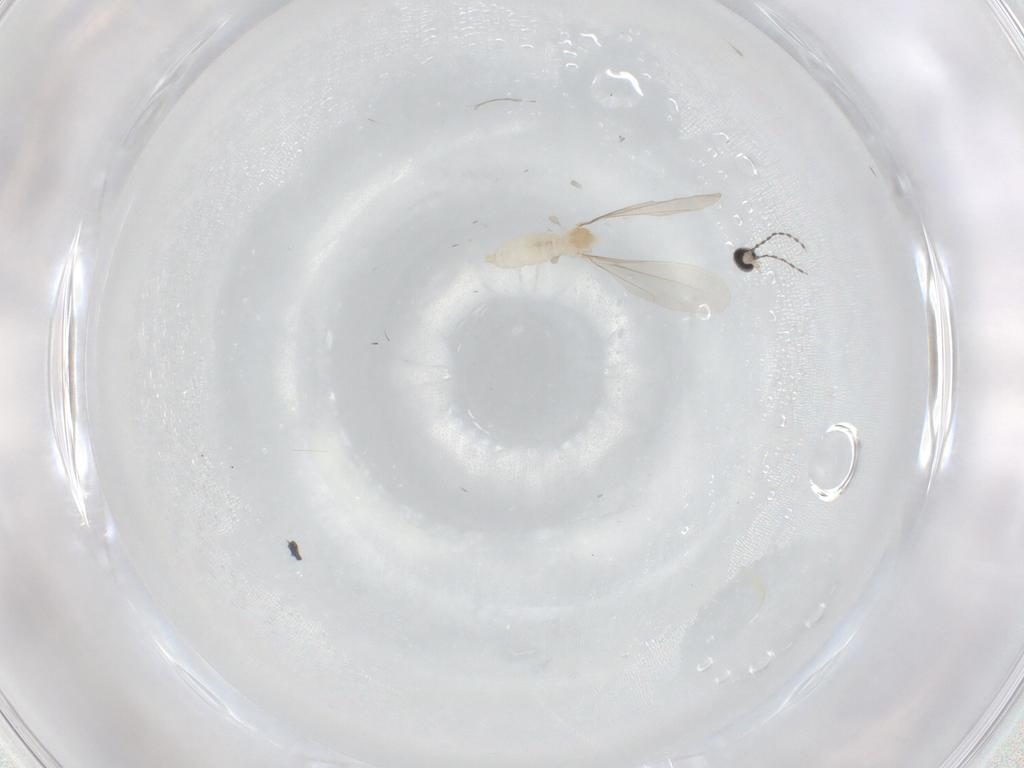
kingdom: Animalia
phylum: Arthropoda
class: Insecta
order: Diptera
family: Cecidomyiidae
